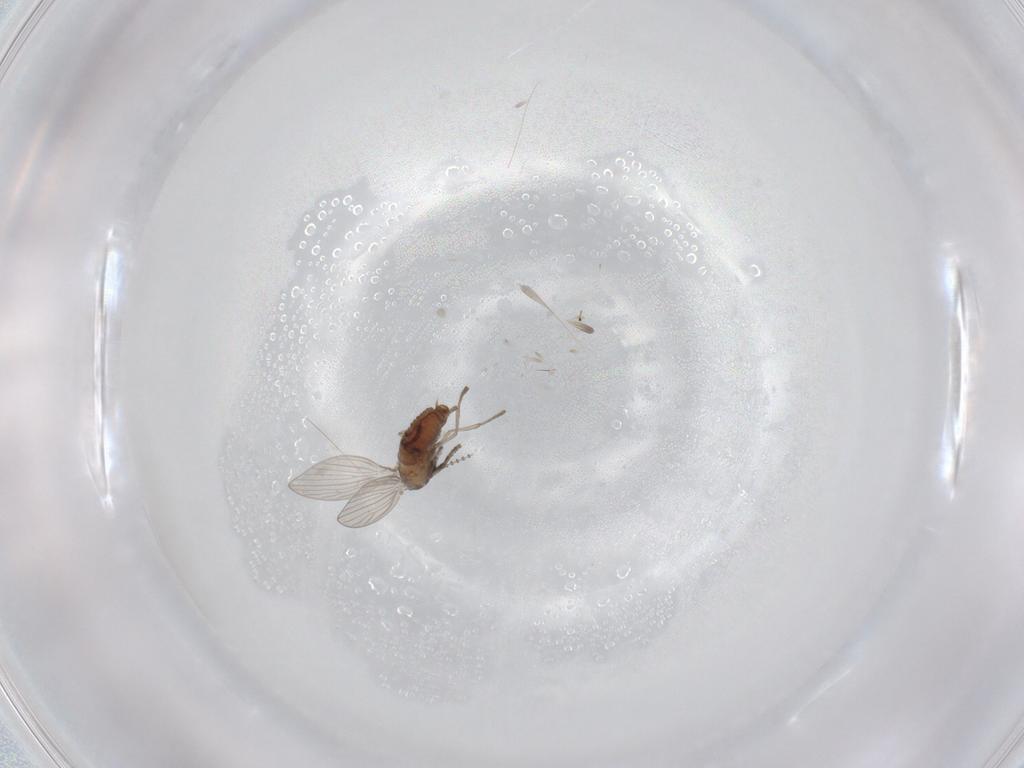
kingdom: Animalia
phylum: Arthropoda
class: Insecta
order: Diptera
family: Psychodidae
